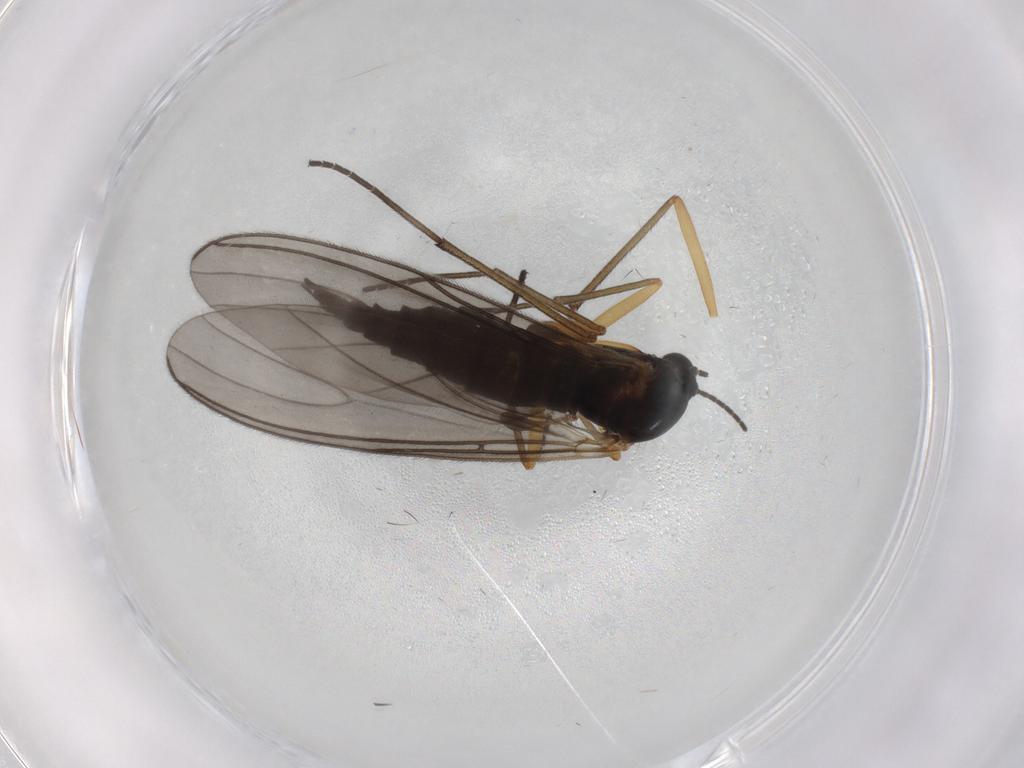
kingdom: Animalia
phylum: Arthropoda
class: Insecta
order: Diptera
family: Sciaridae
